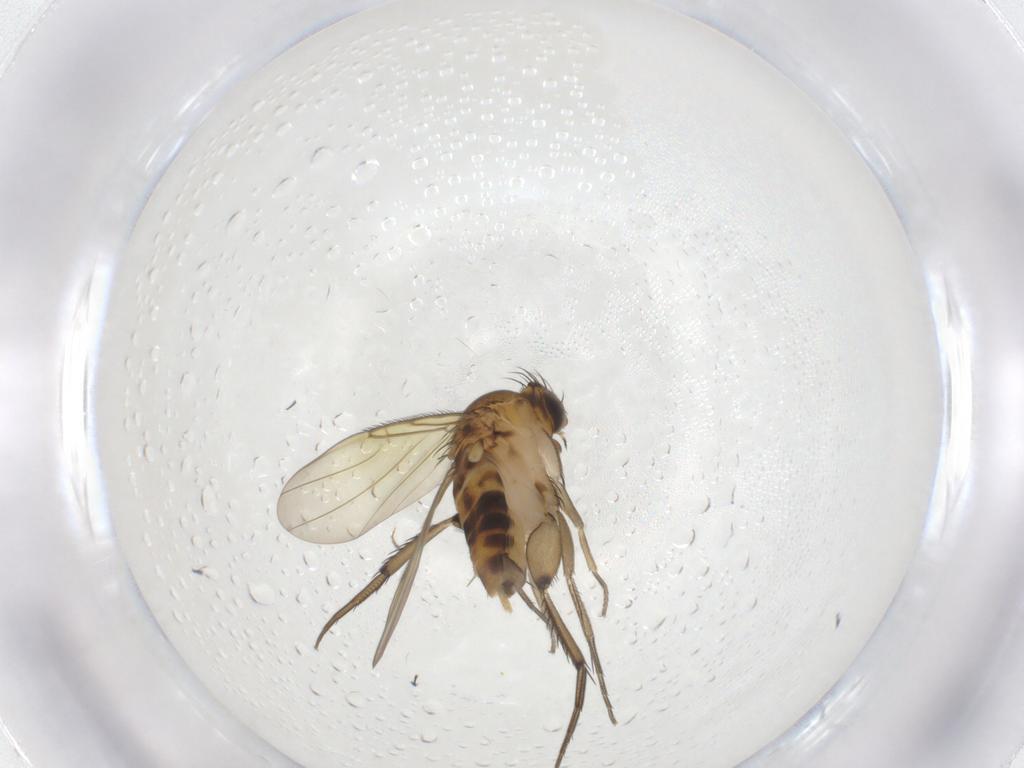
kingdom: Animalia
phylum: Arthropoda
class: Insecta
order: Diptera
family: Phoridae
